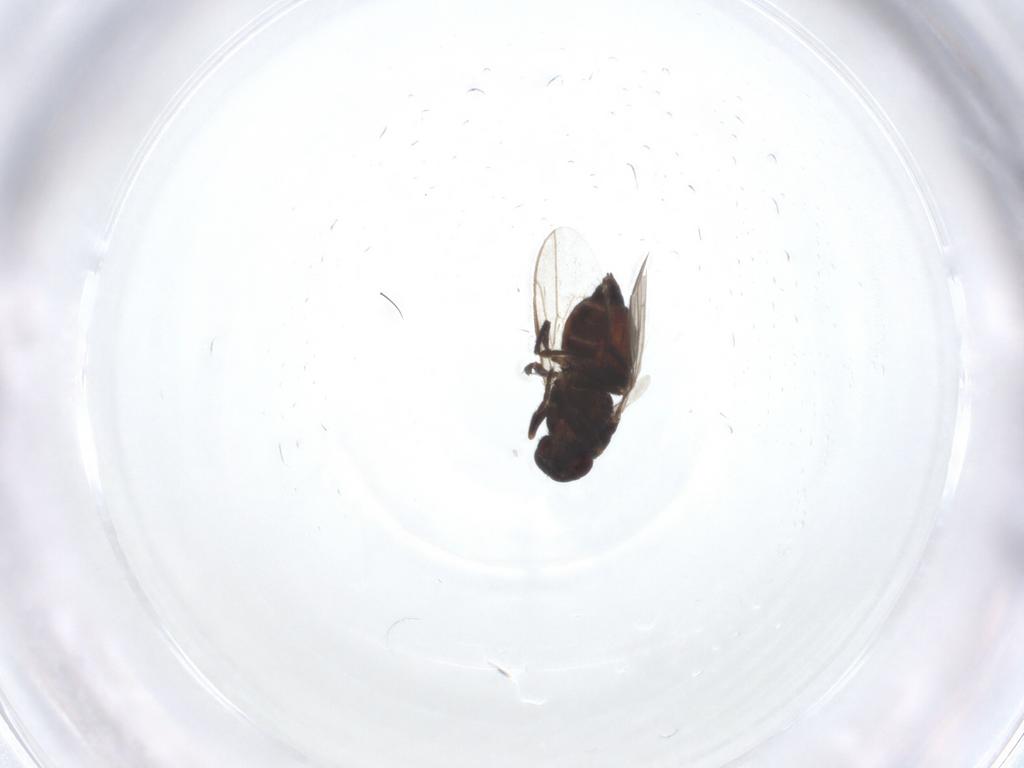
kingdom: Animalia
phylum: Arthropoda
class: Insecta
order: Diptera
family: Sphaeroceridae
